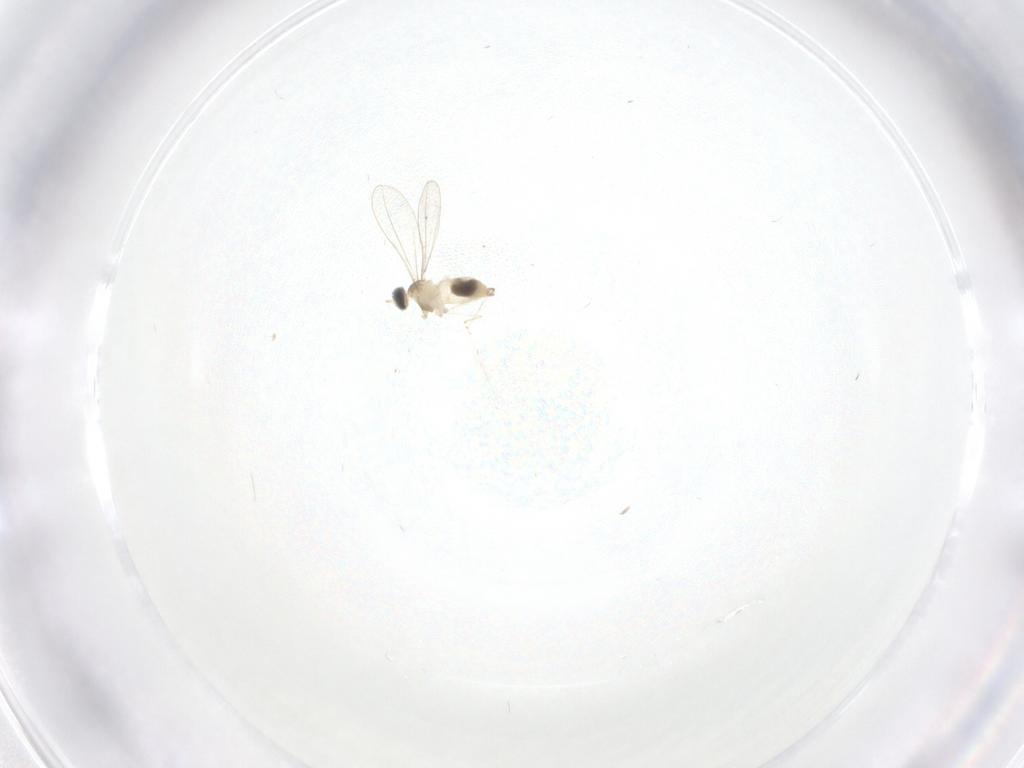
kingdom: Animalia
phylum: Arthropoda
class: Insecta
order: Diptera
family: Cecidomyiidae
